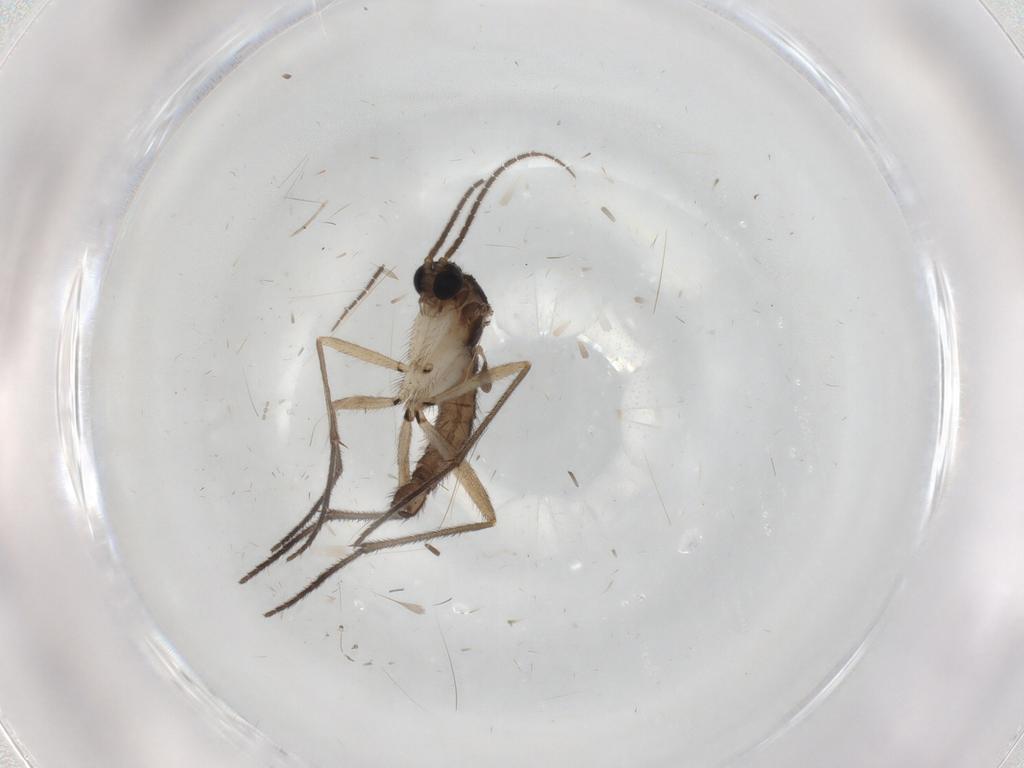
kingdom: Animalia
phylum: Arthropoda
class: Insecta
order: Diptera
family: Sciaridae
